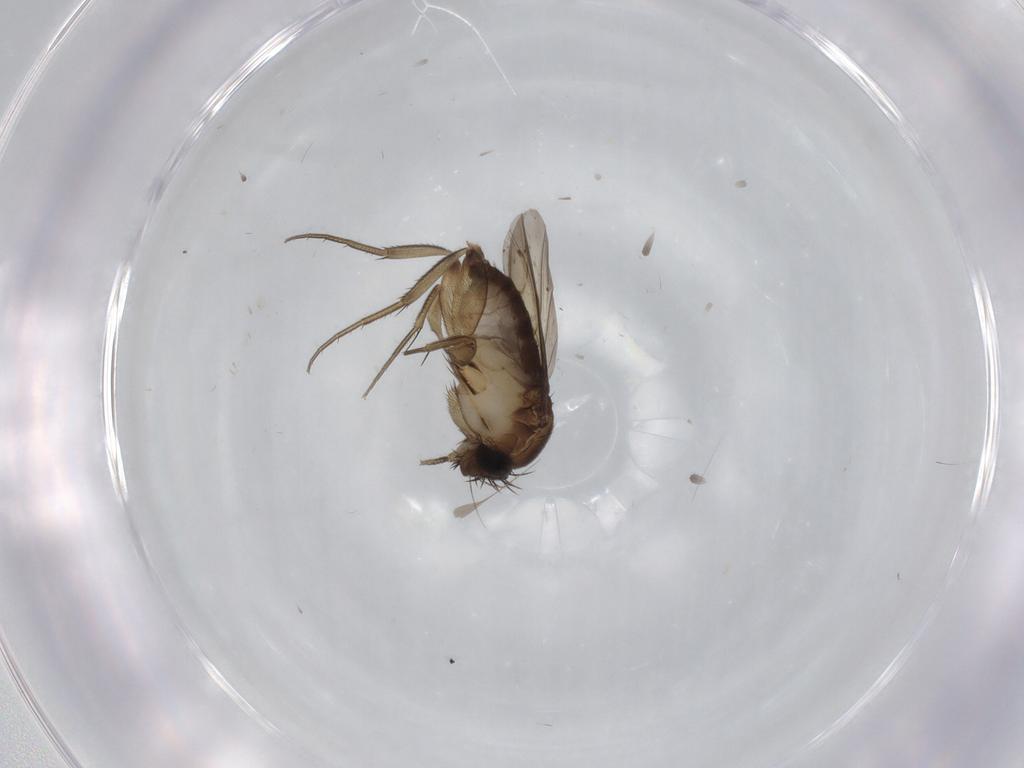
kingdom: Animalia
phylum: Arthropoda
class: Insecta
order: Diptera
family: Phoridae
